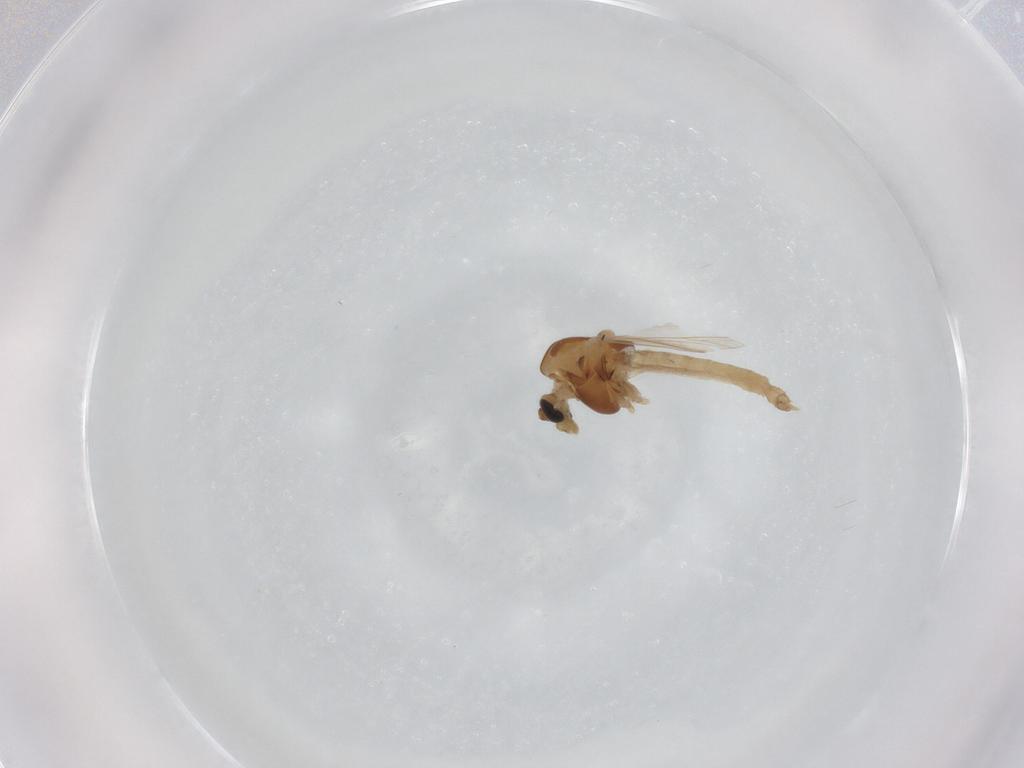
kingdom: Animalia
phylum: Arthropoda
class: Insecta
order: Diptera
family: Chironomidae
